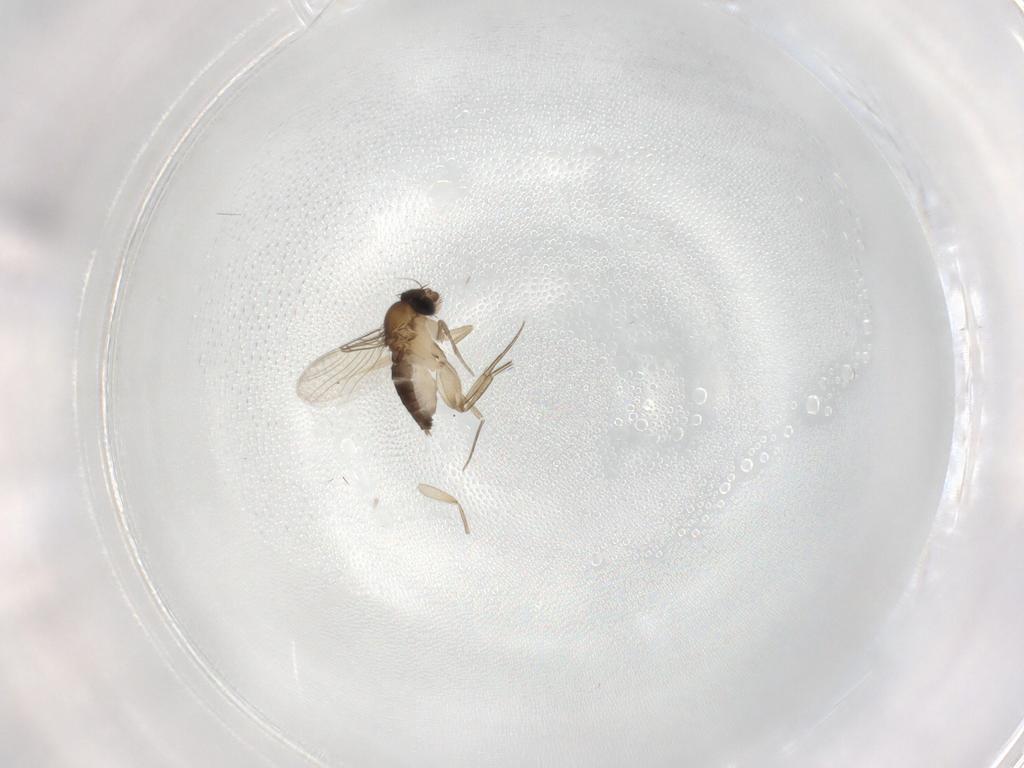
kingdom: Animalia
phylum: Arthropoda
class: Insecta
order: Diptera
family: Phoridae
